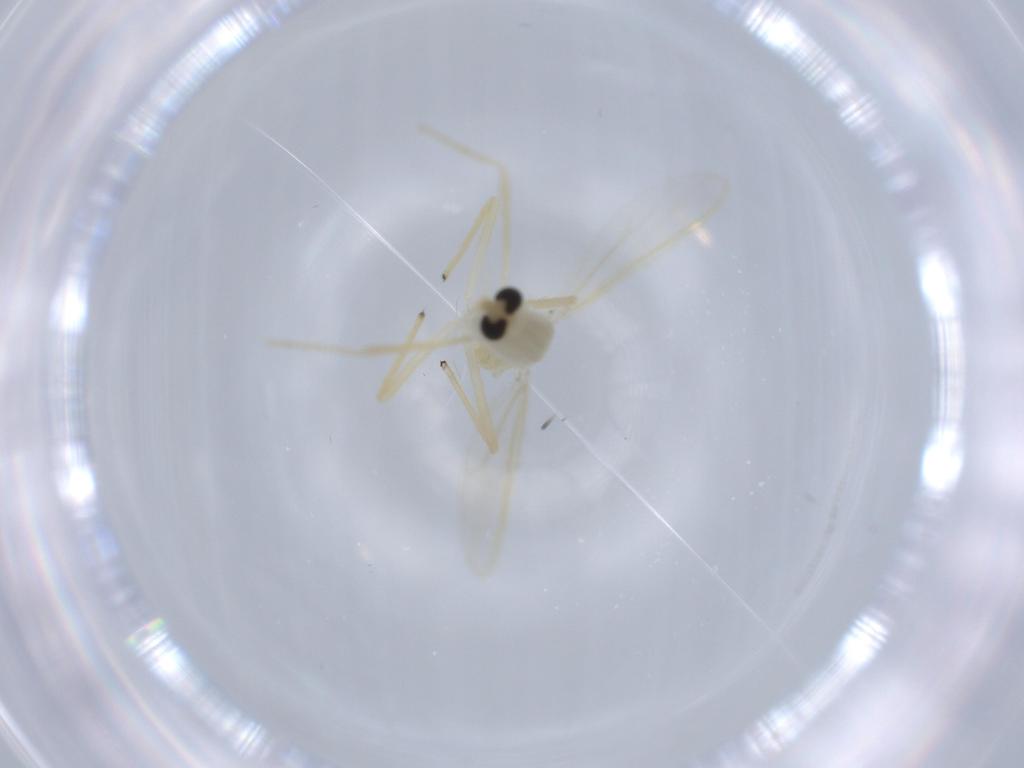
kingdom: Animalia
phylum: Arthropoda
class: Insecta
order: Diptera
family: Chironomidae
